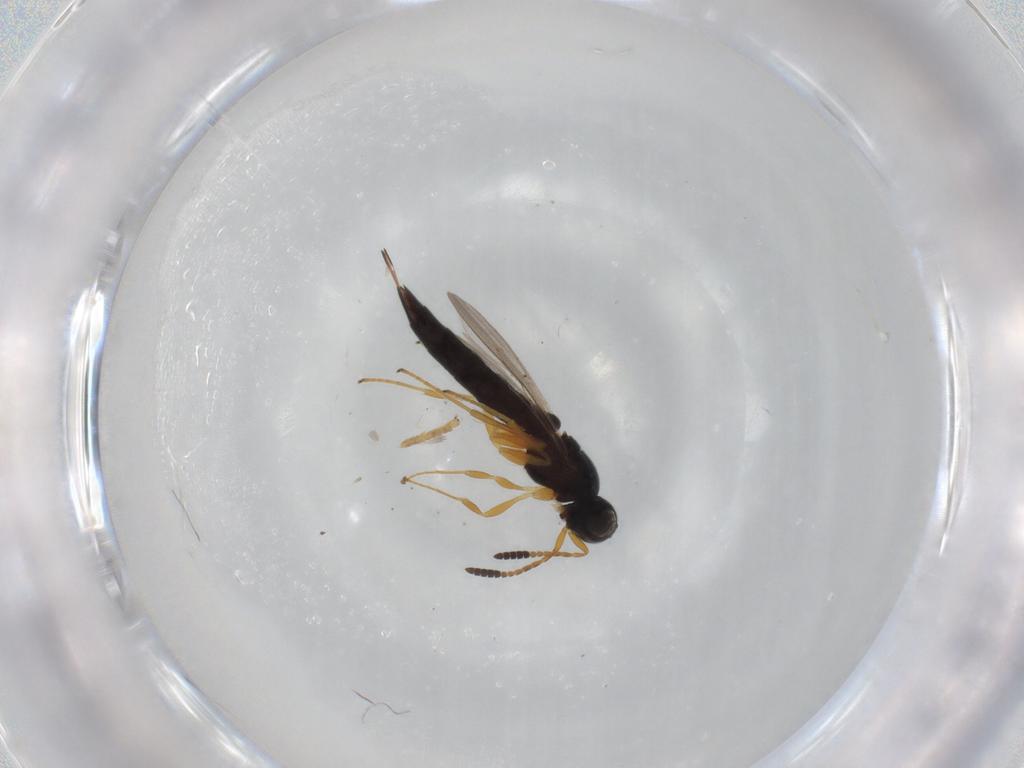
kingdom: Animalia
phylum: Arthropoda
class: Insecta
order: Hymenoptera
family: Scelionidae
